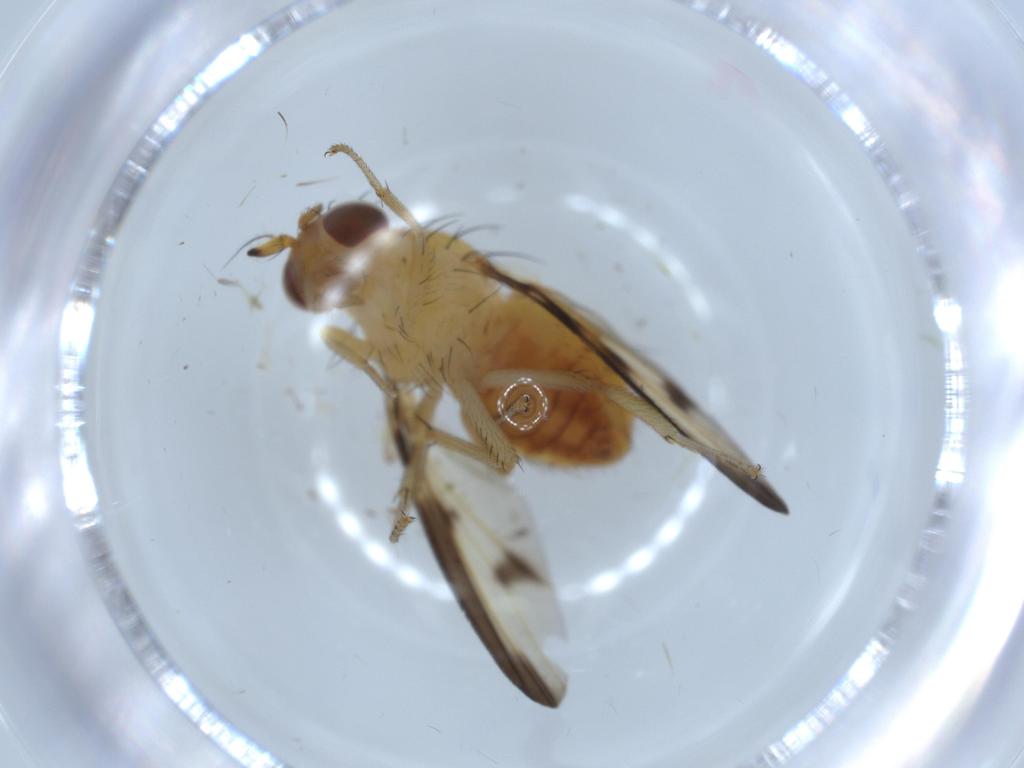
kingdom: Animalia
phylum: Arthropoda
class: Insecta
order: Diptera
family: Lauxaniidae
